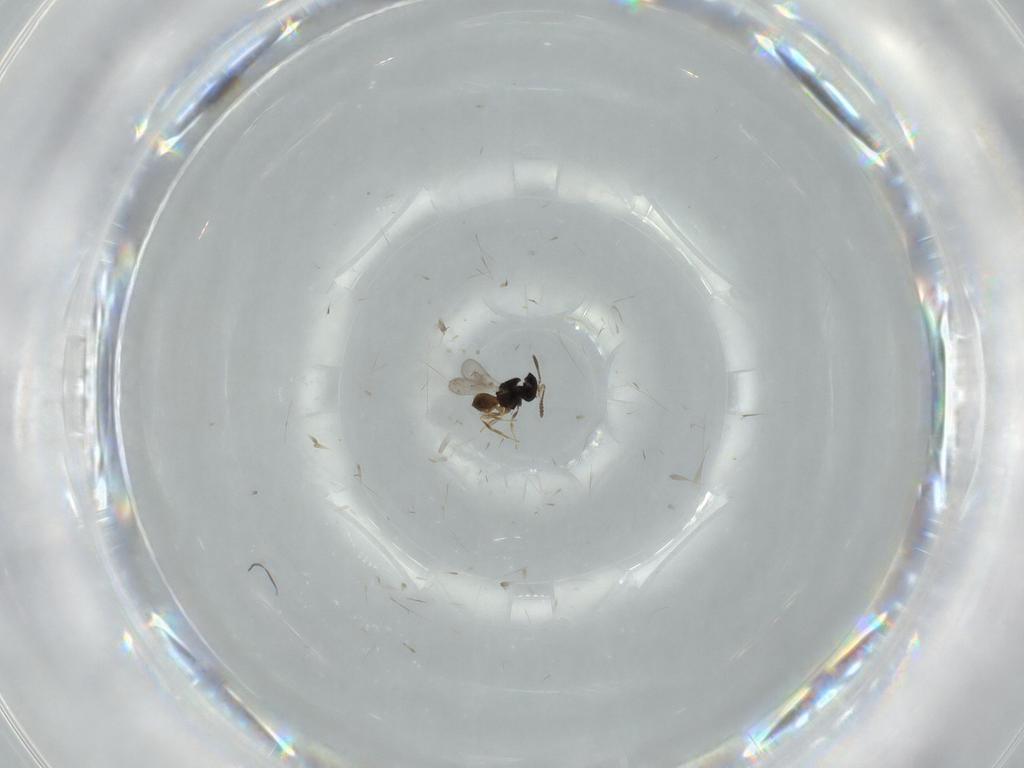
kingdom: Animalia
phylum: Arthropoda
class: Insecta
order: Hymenoptera
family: Scelionidae
